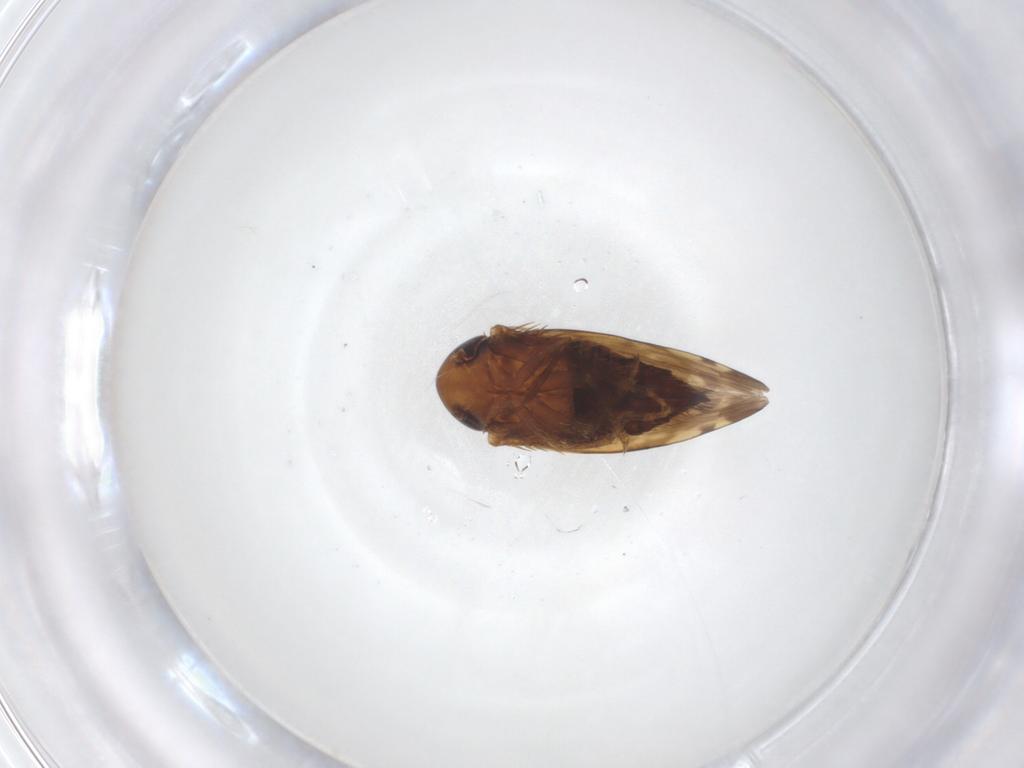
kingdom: Animalia
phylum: Arthropoda
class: Insecta
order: Hemiptera
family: Cicadellidae
